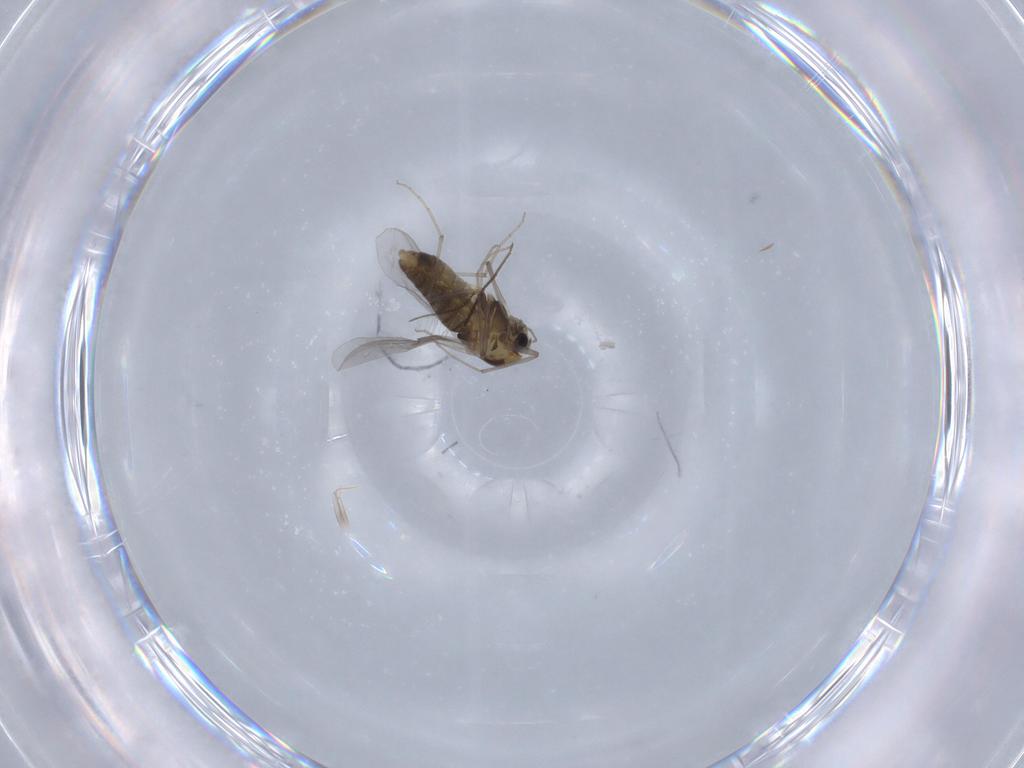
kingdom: Animalia
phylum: Arthropoda
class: Insecta
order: Diptera
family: Chironomidae
